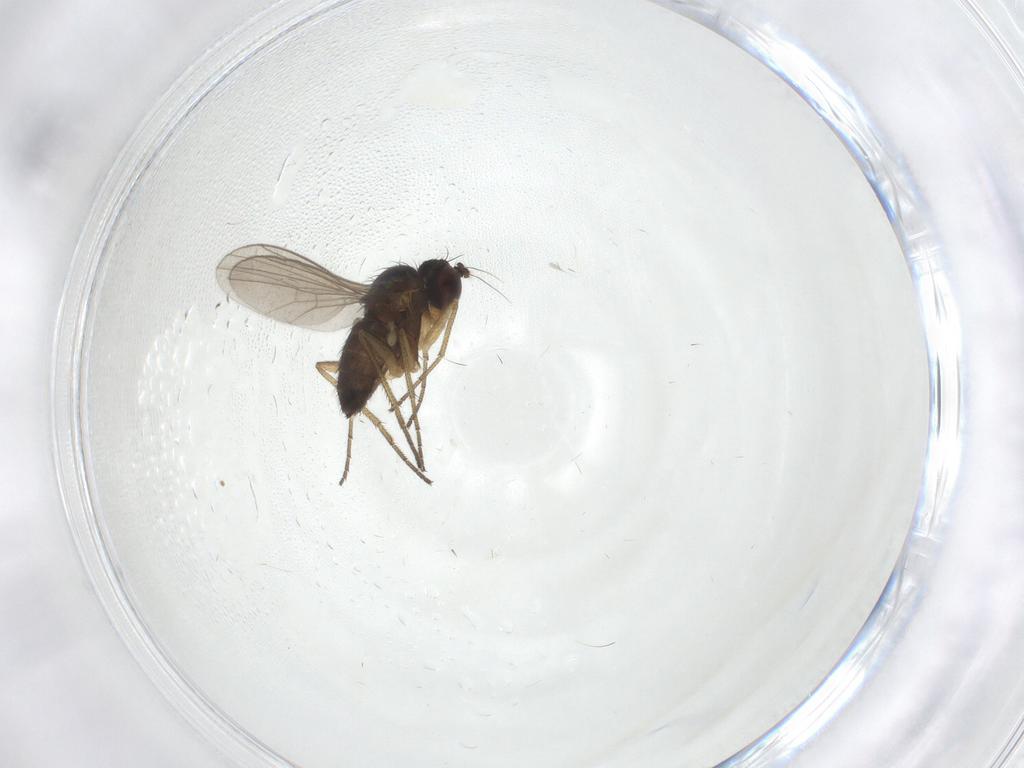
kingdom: Animalia
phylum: Arthropoda
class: Insecta
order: Diptera
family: Dolichopodidae
